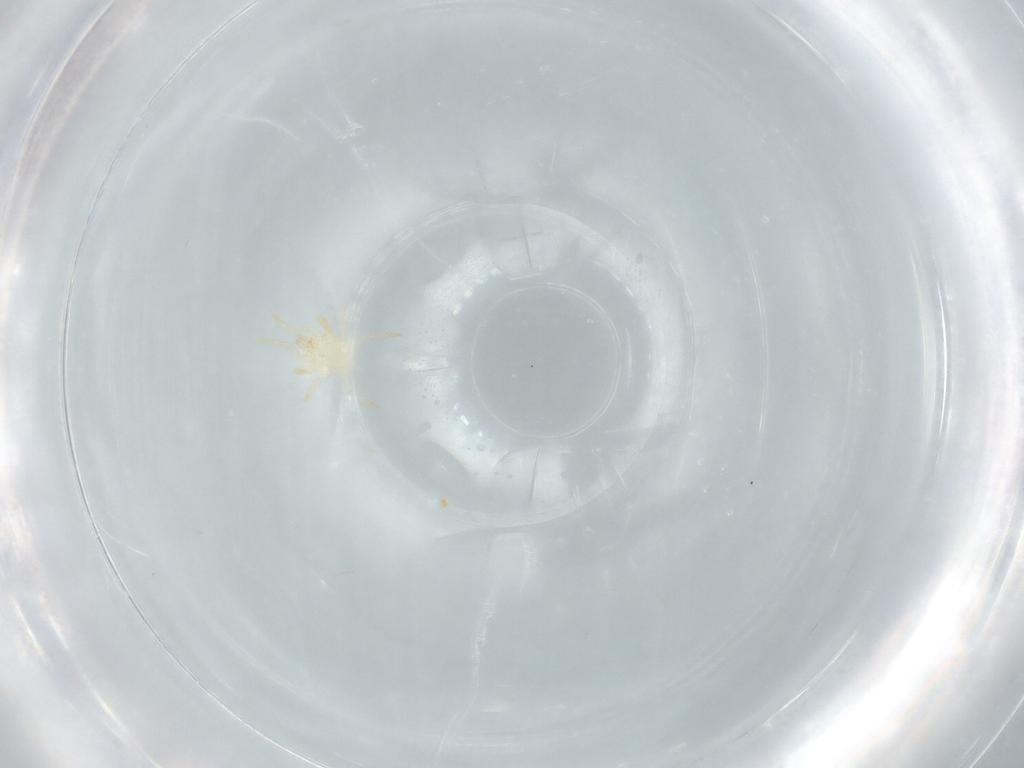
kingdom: Animalia
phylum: Arthropoda
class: Arachnida
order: Mesostigmata
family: Parasitidae
